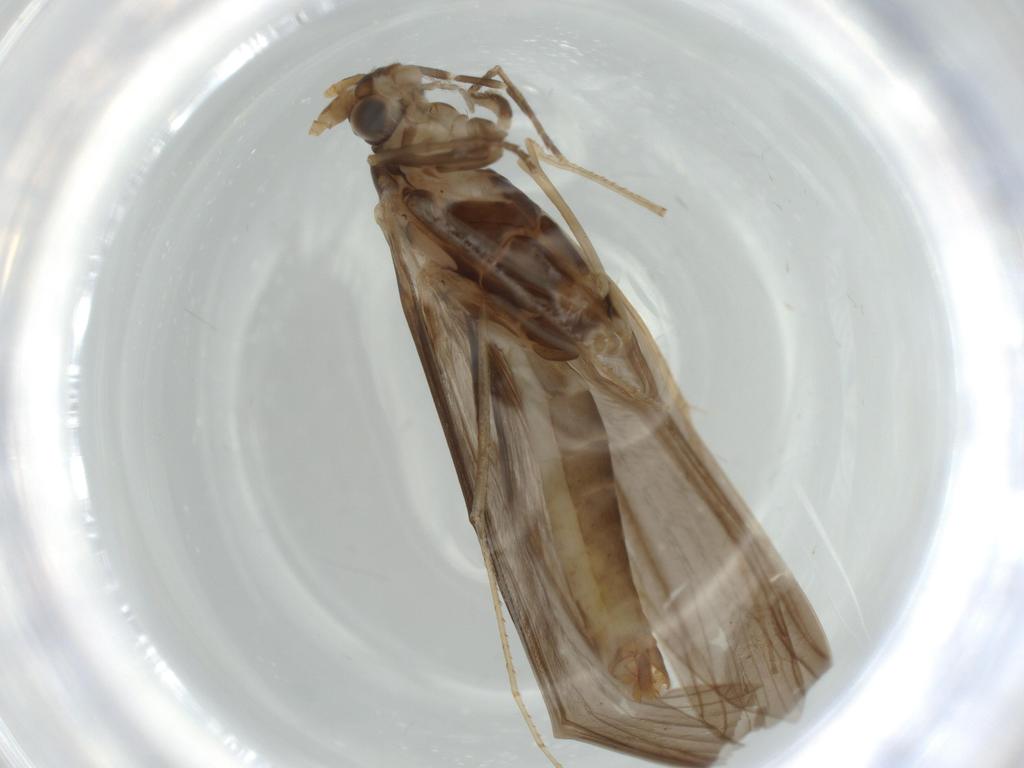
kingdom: Animalia
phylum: Arthropoda
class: Insecta
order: Trichoptera
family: Leptoceridae
